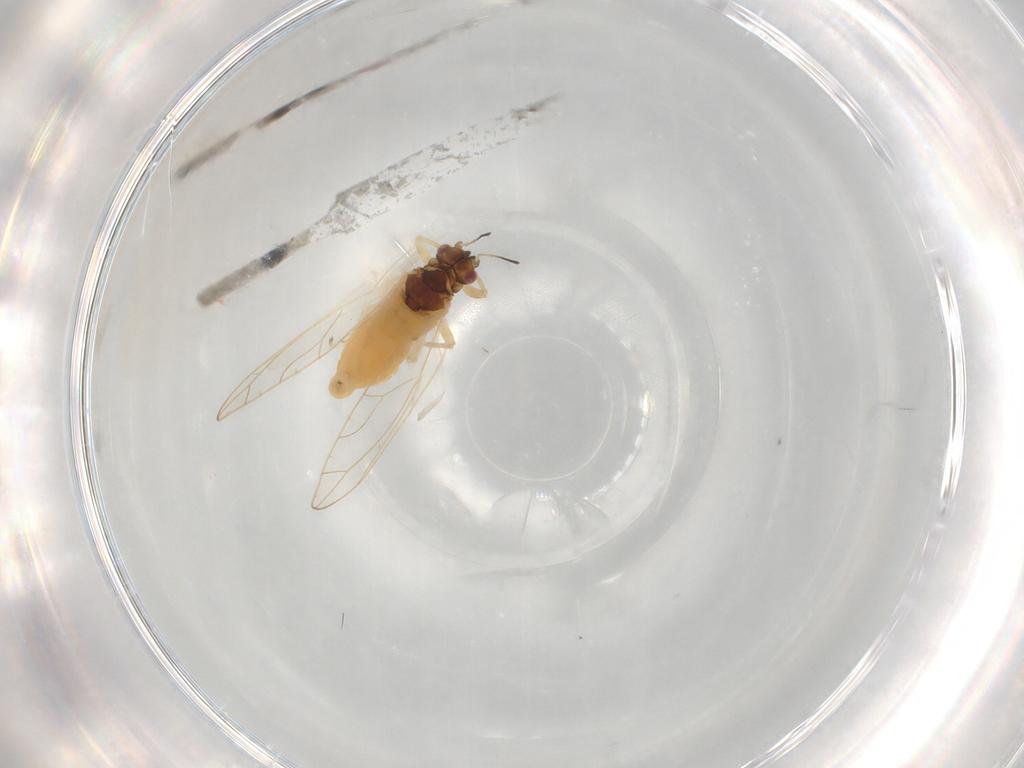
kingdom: Animalia
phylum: Arthropoda
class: Insecta
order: Hemiptera
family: Triozidae
